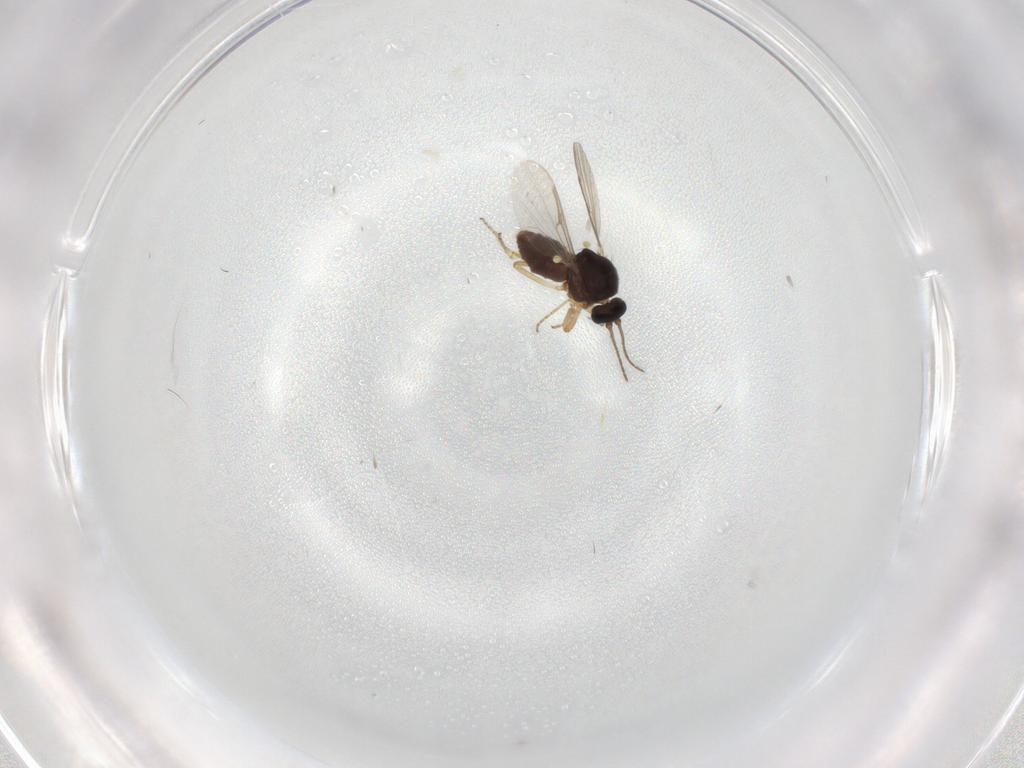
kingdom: Animalia
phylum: Arthropoda
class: Insecta
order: Diptera
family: Ceratopogonidae
